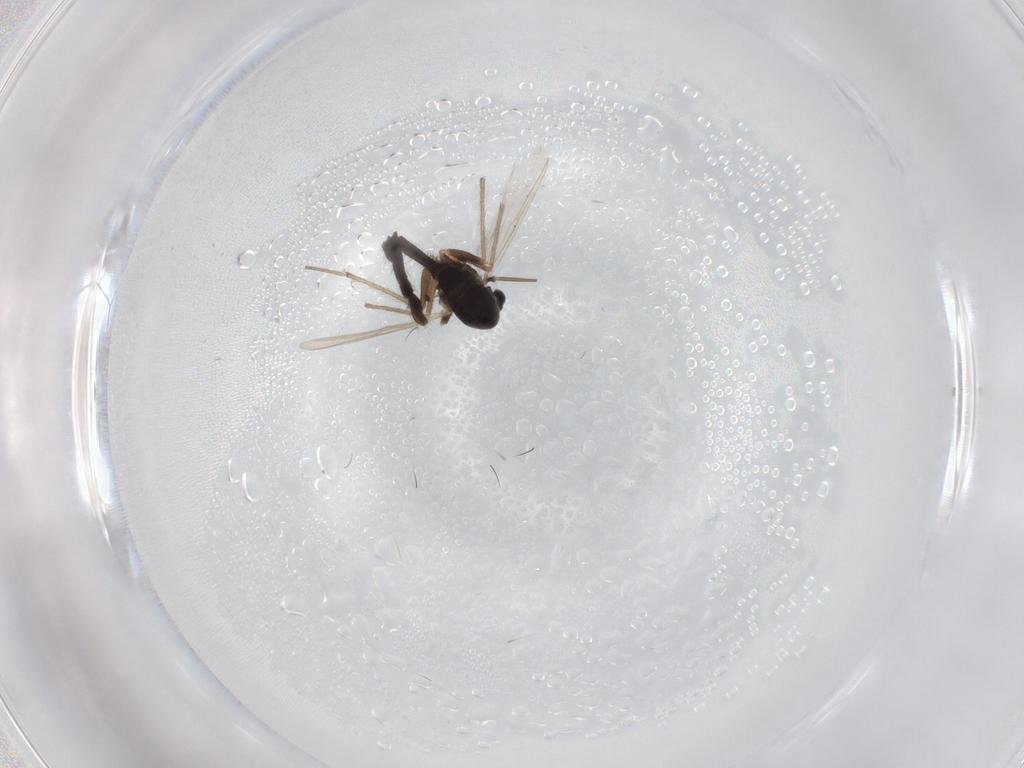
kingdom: Animalia
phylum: Arthropoda
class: Insecta
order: Diptera
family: Chironomidae
